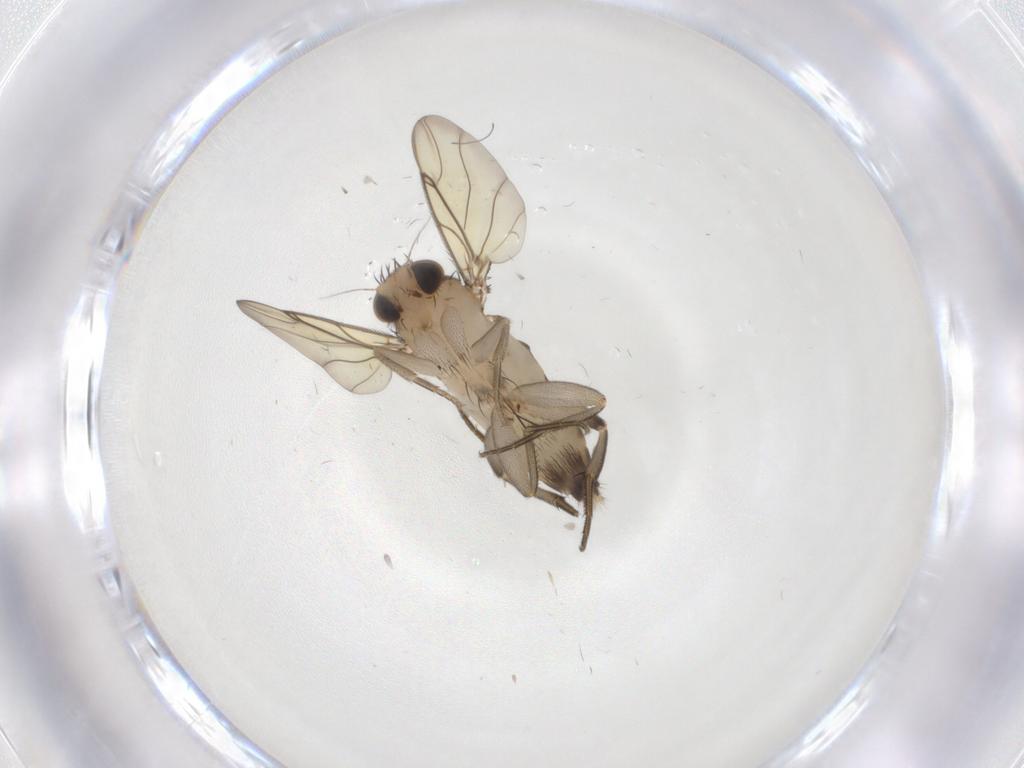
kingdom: Animalia
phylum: Arthropoda
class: Insecta
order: Diptera
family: Phoridae
